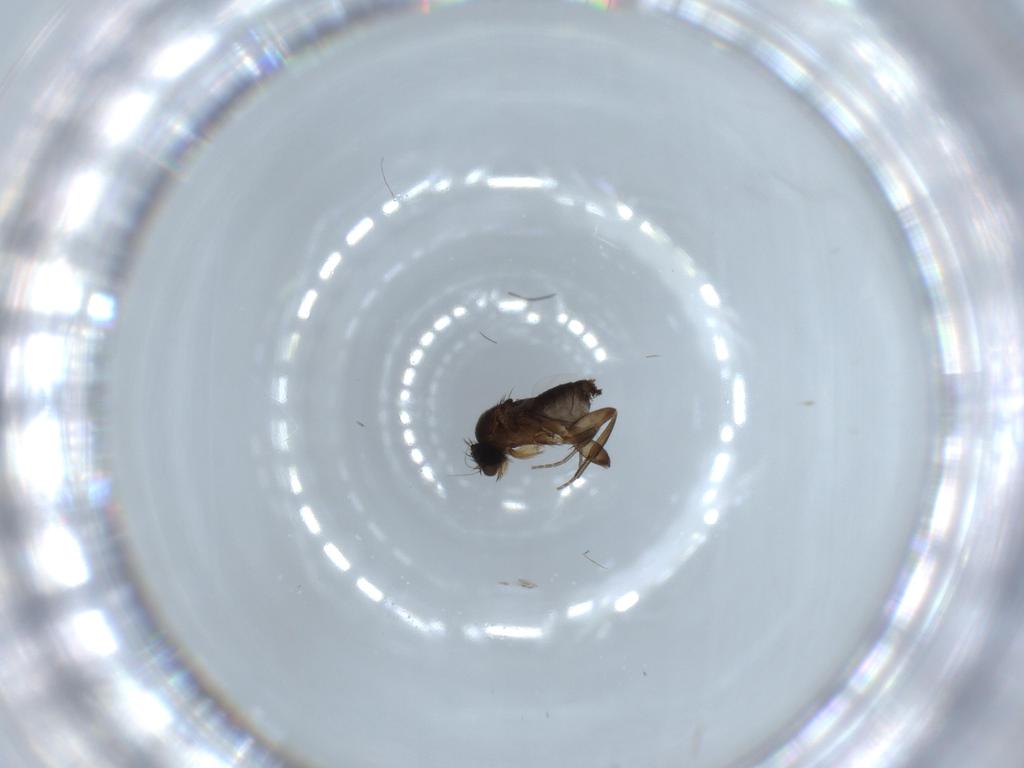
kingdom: Animalia
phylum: Arthropoda
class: Insecta
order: Diptera
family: Phoridae
